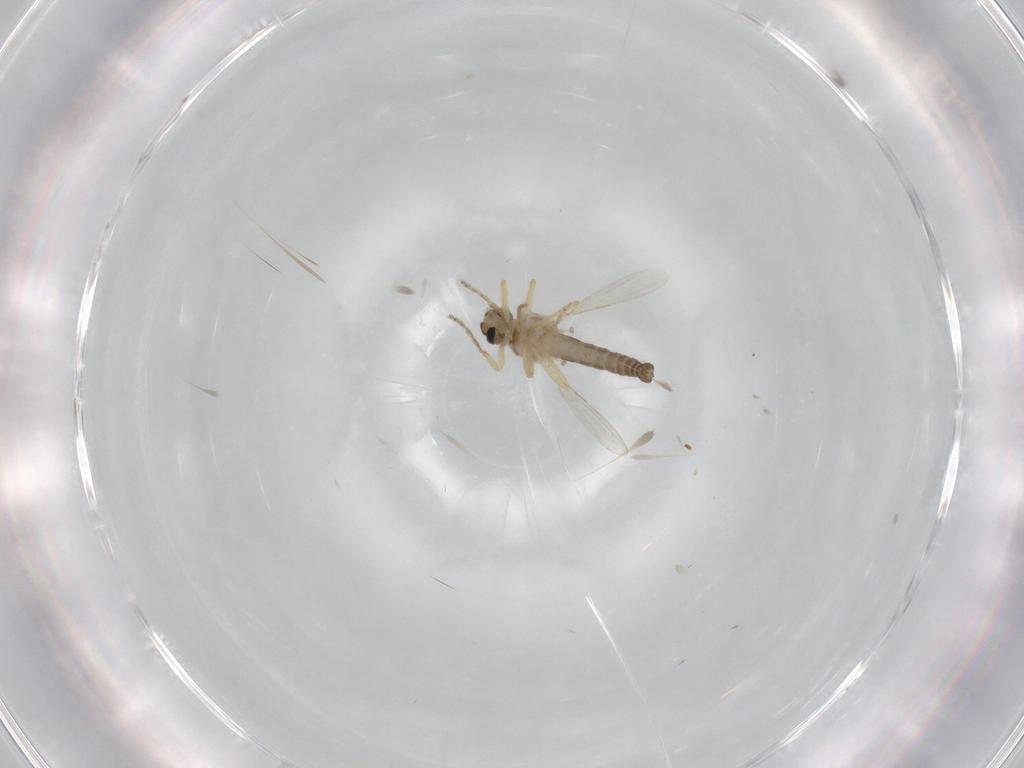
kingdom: Animalia
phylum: Arthropoda
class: Insecta
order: Diptera
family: Ceratopogonidae
